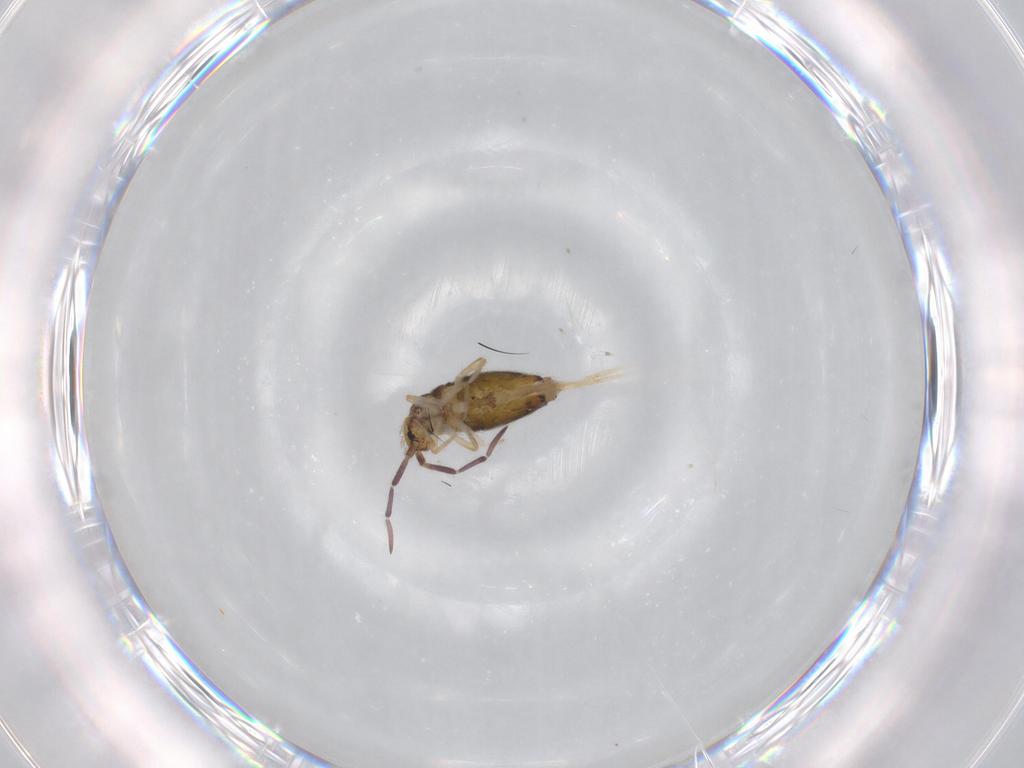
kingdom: Animalia
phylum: Arthropoda
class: Collembola
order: Entomobryomorpha
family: Entomobryidae
